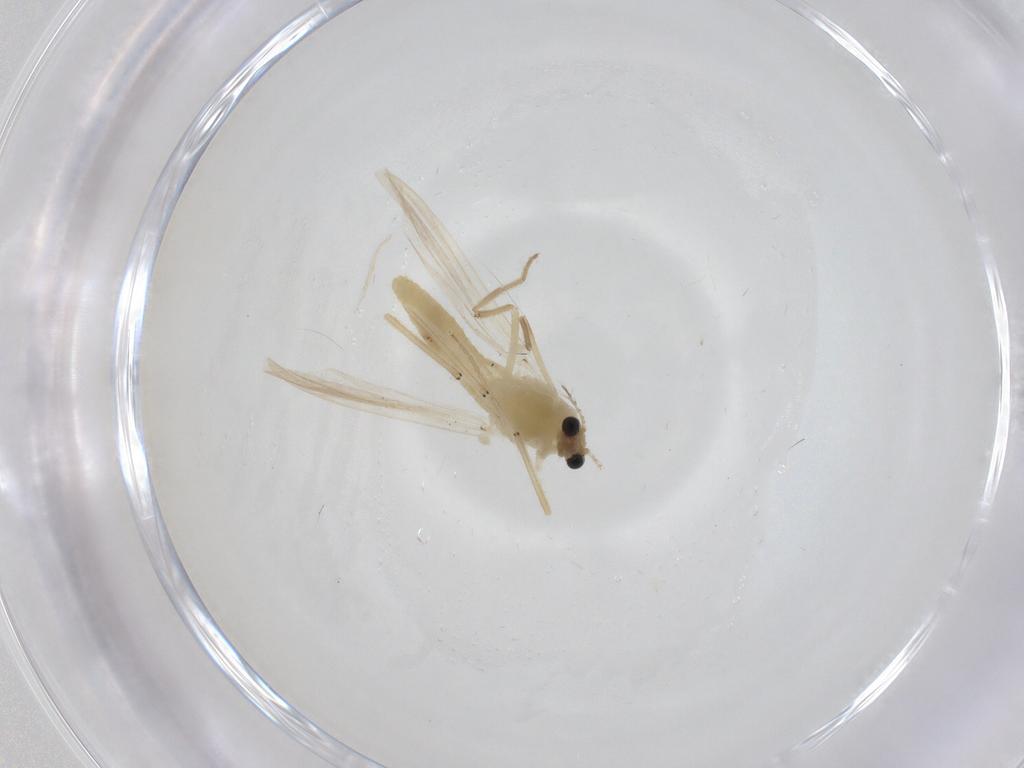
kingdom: Animalia
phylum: Arthropoda
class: Insecta
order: Diptera
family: Chironomidae
